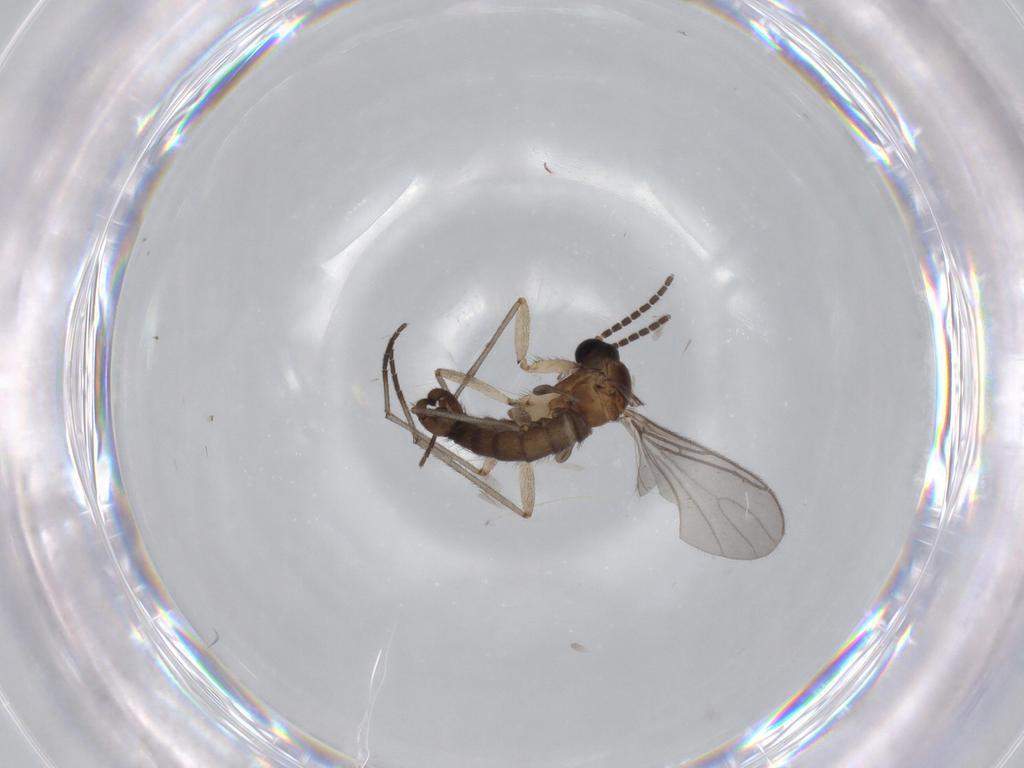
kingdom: Animalia
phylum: Arthropoda
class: Insecta
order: Diptera
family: Sciaridae
